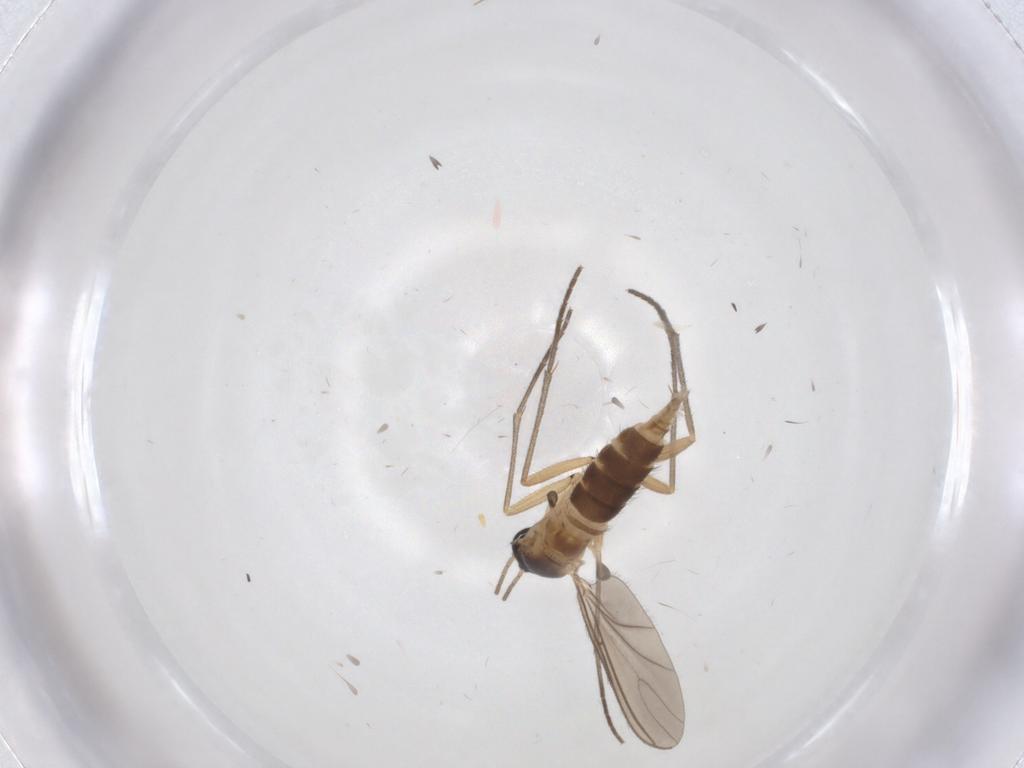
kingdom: Animalia
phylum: Arthropoda
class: Insecta
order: Diptera
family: Sciaridae
